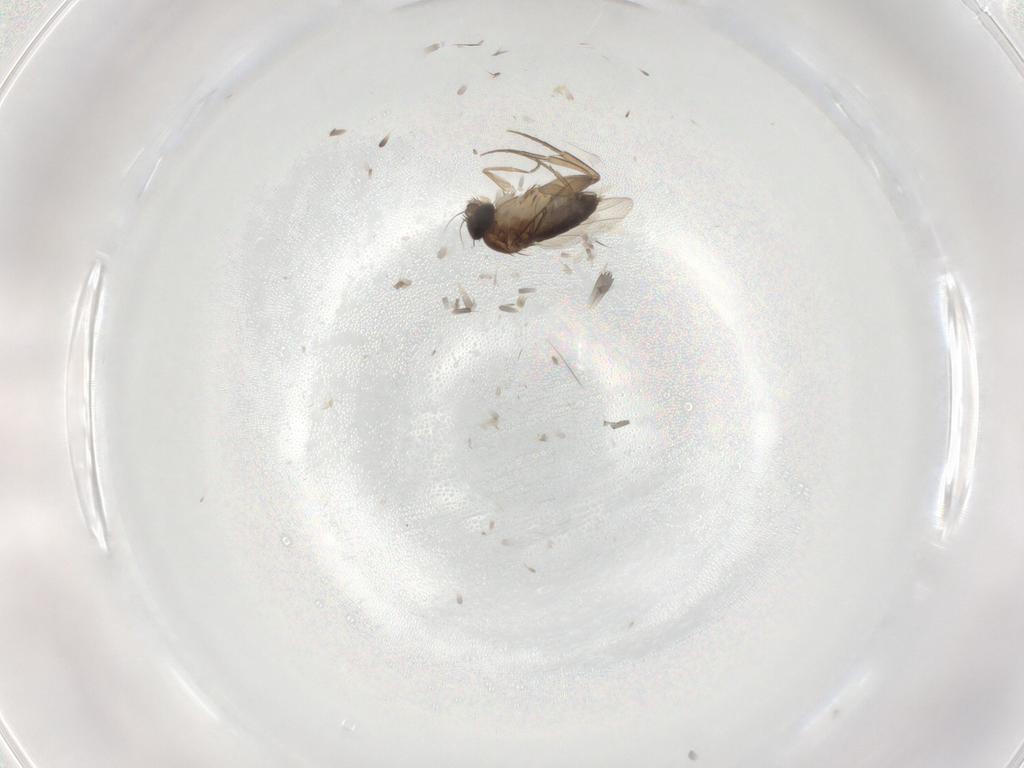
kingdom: Animalia
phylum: Arthropoda
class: Insecta
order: Diptera
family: Phoridae
